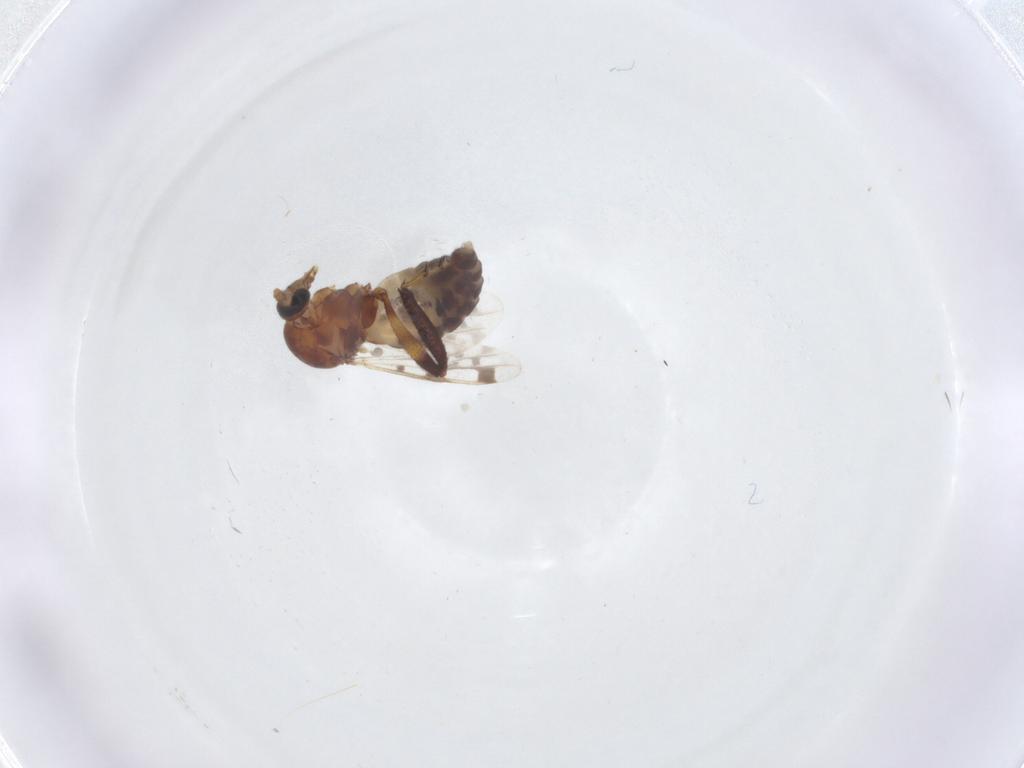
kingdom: Animalia
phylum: Arthropoda
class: Insecta
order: Diptera
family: Ceratopogonidae
